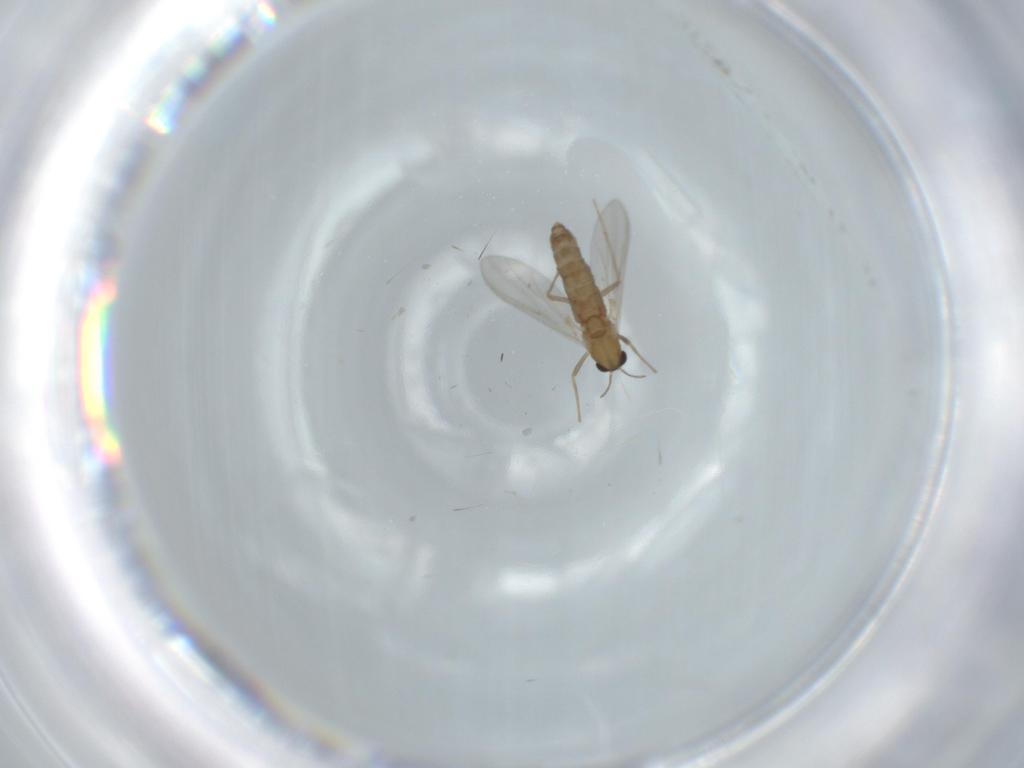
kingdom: Animalia
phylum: Arthropoda
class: Insecta
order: Diptera
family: Chironomidae
